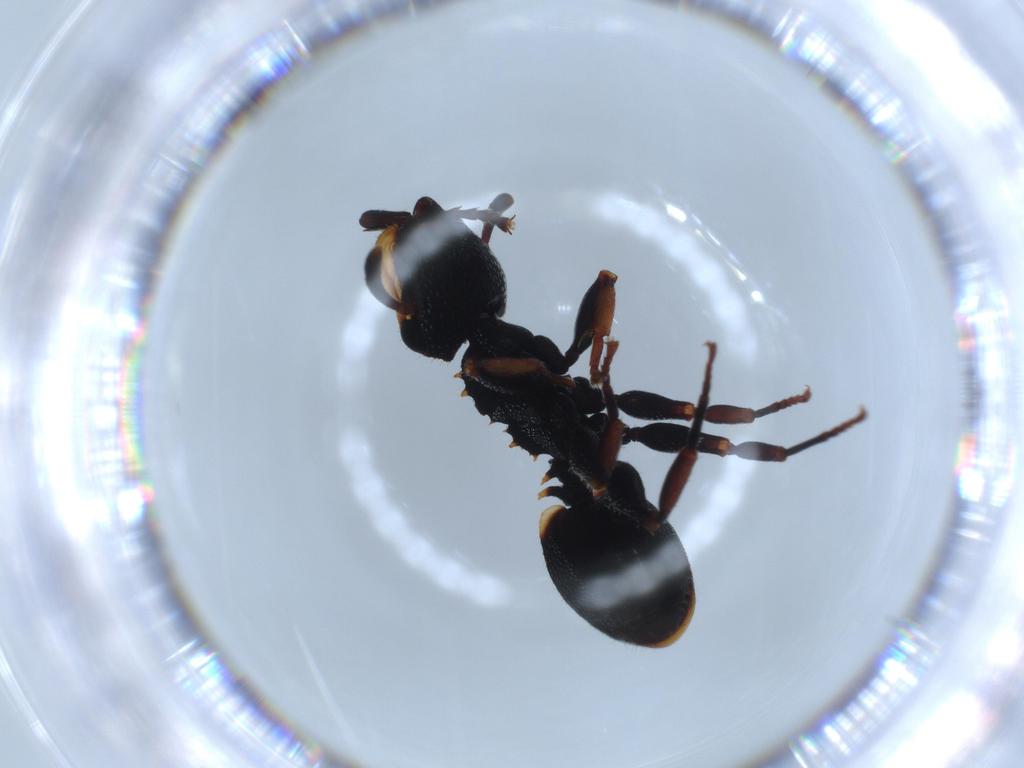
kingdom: Animalia
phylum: Arthropoda
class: Insecta
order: Hymenoptera
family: Formicidae
